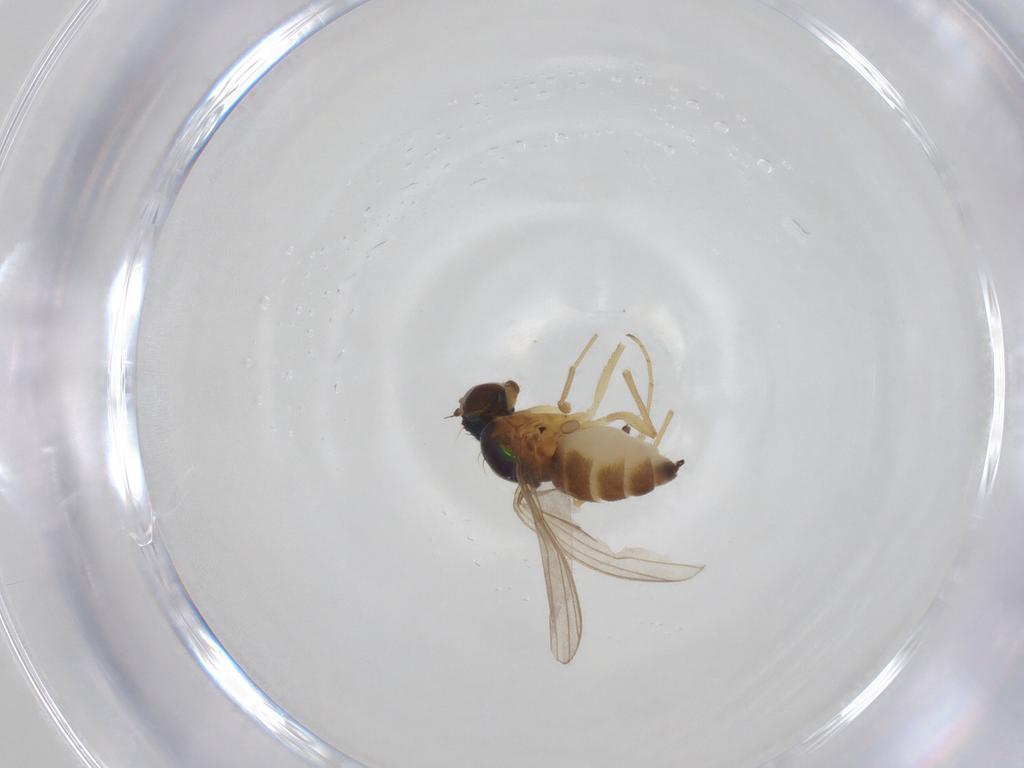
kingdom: Animalia
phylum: Arthropoda
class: Insecta
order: Diptera
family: Dolichopodidae
